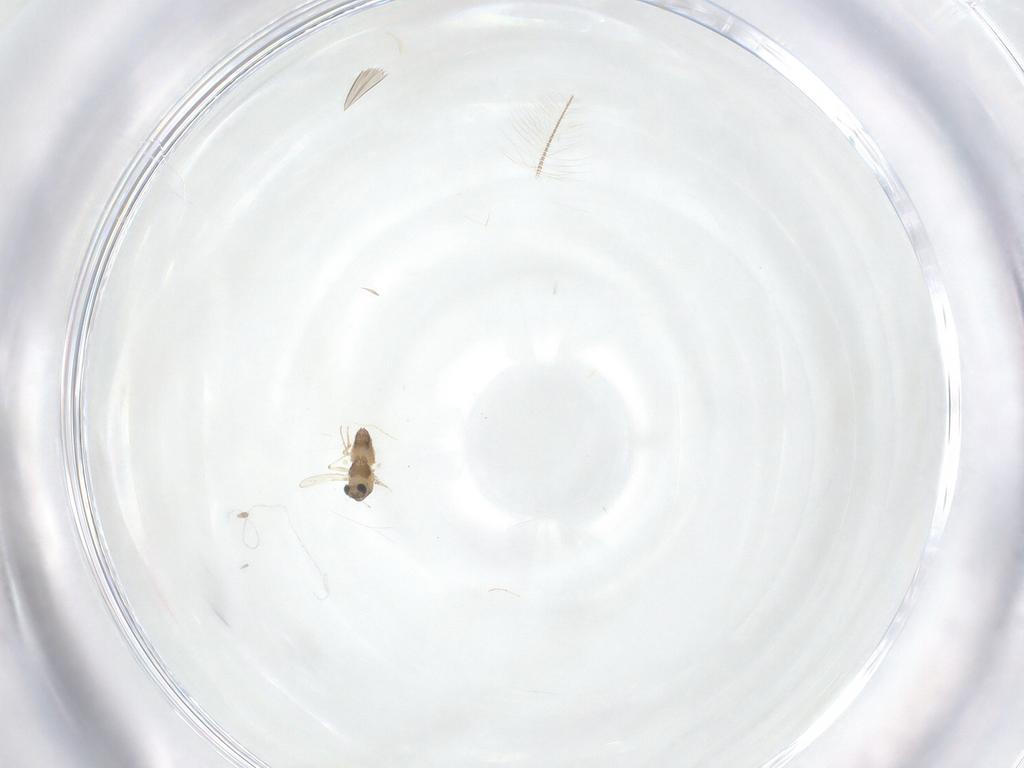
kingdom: Animalia
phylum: Arthropoda
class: Insecta
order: Diptera
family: Chironomidae
